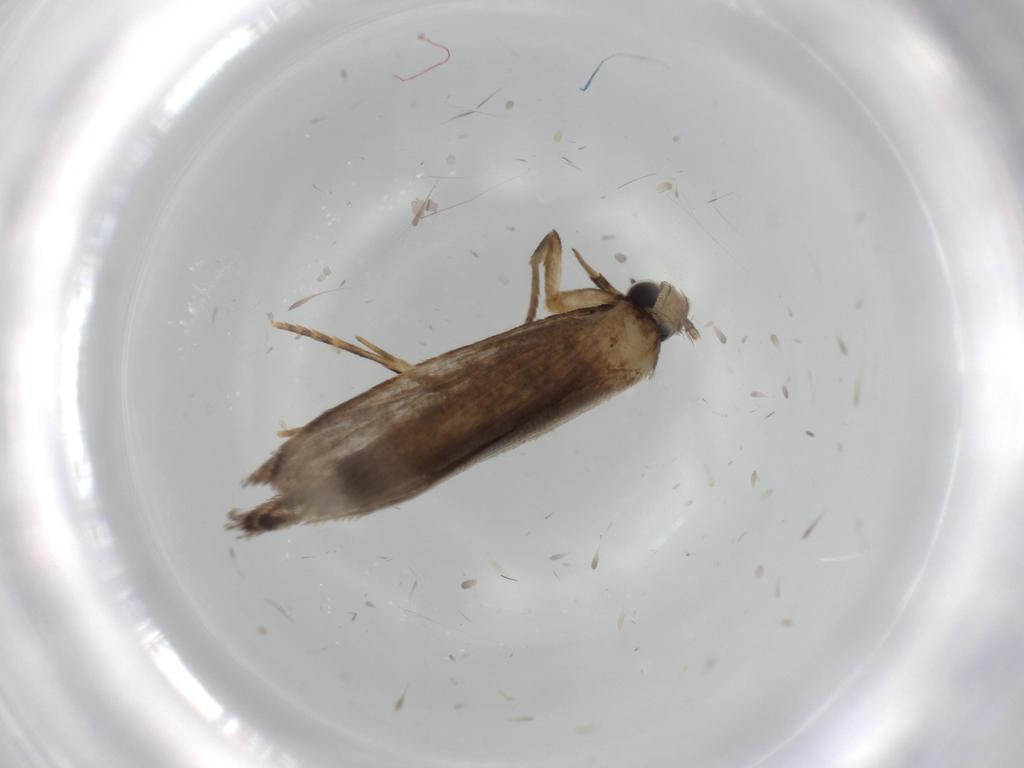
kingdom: Animalia
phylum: Arthropoda
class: Insecta
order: Lepidoptera
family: Tineidae
